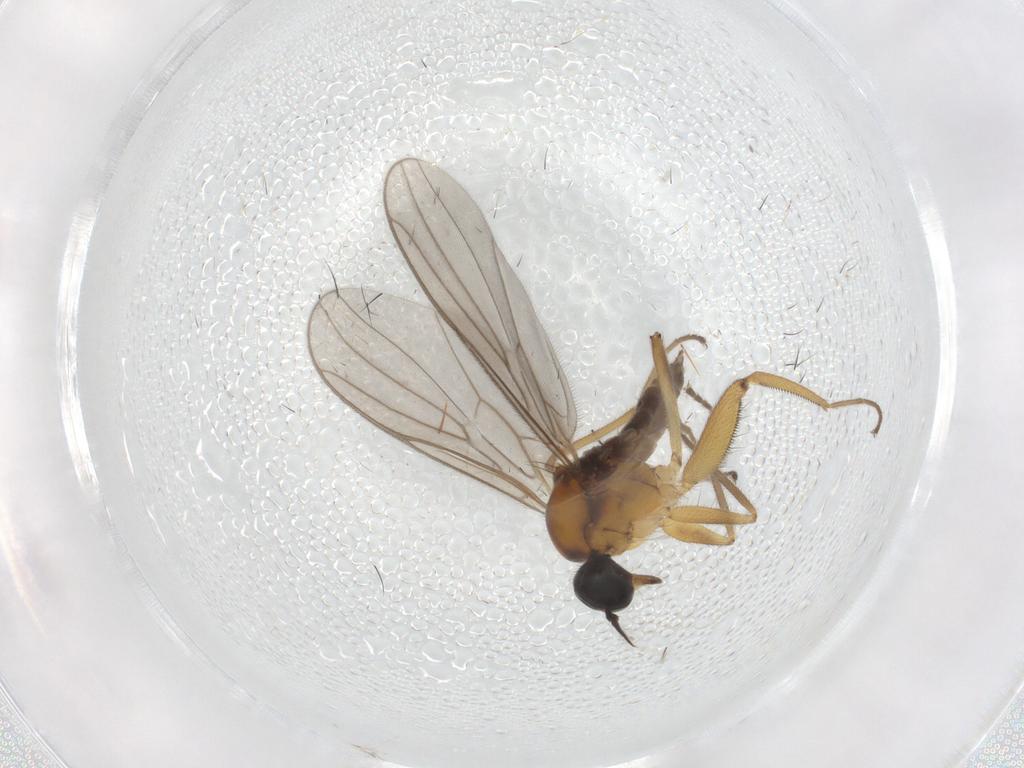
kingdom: Animalia
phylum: Arthropoda
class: Insecta
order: Diptera
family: Hybotidae
